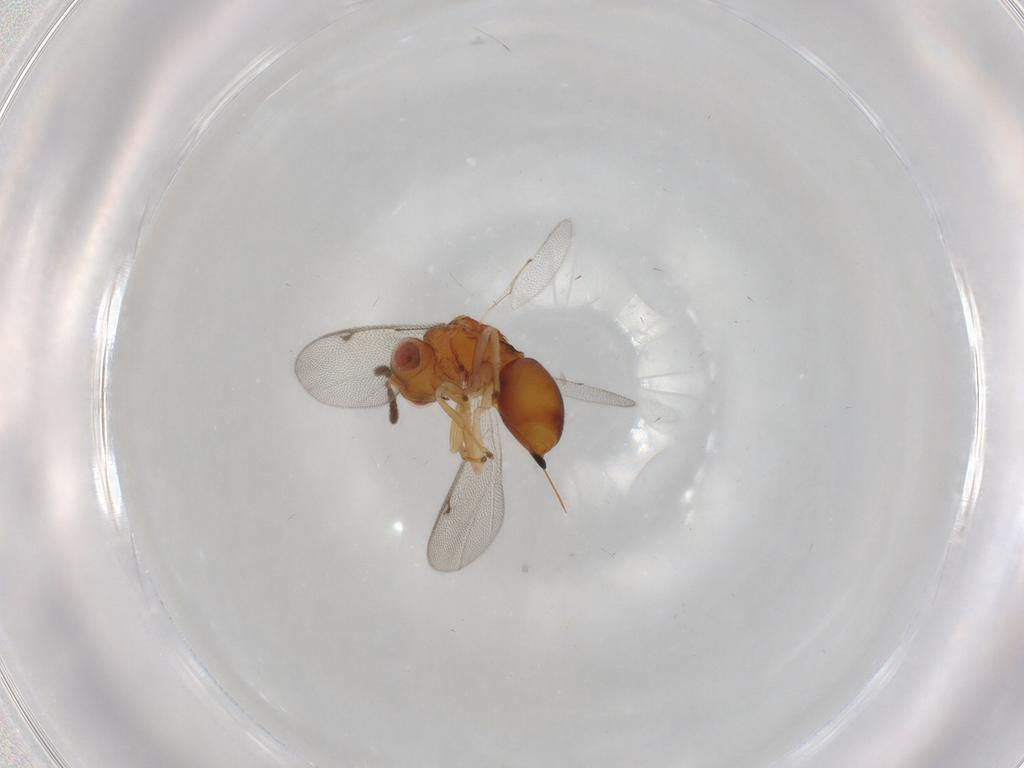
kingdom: Animalia
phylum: Arthropoda
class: Insecta
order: Hymenoptera
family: Eurytomidae
